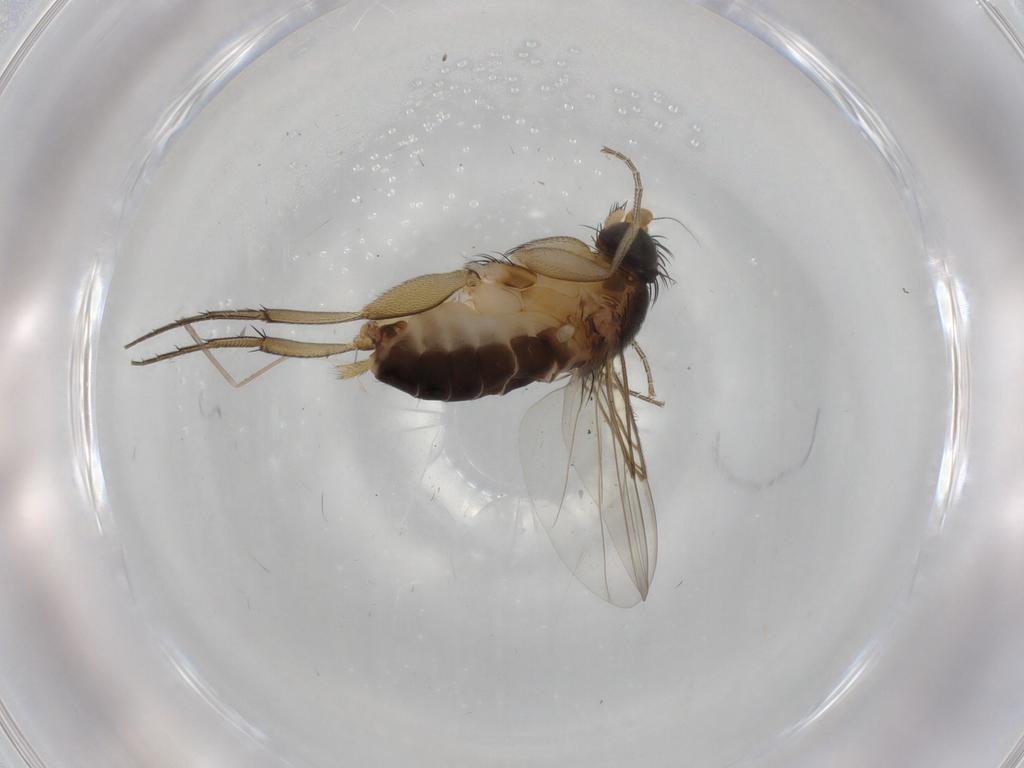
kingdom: Animalia
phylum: Arthropoda
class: Insecta
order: Diptera
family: Phoridae
